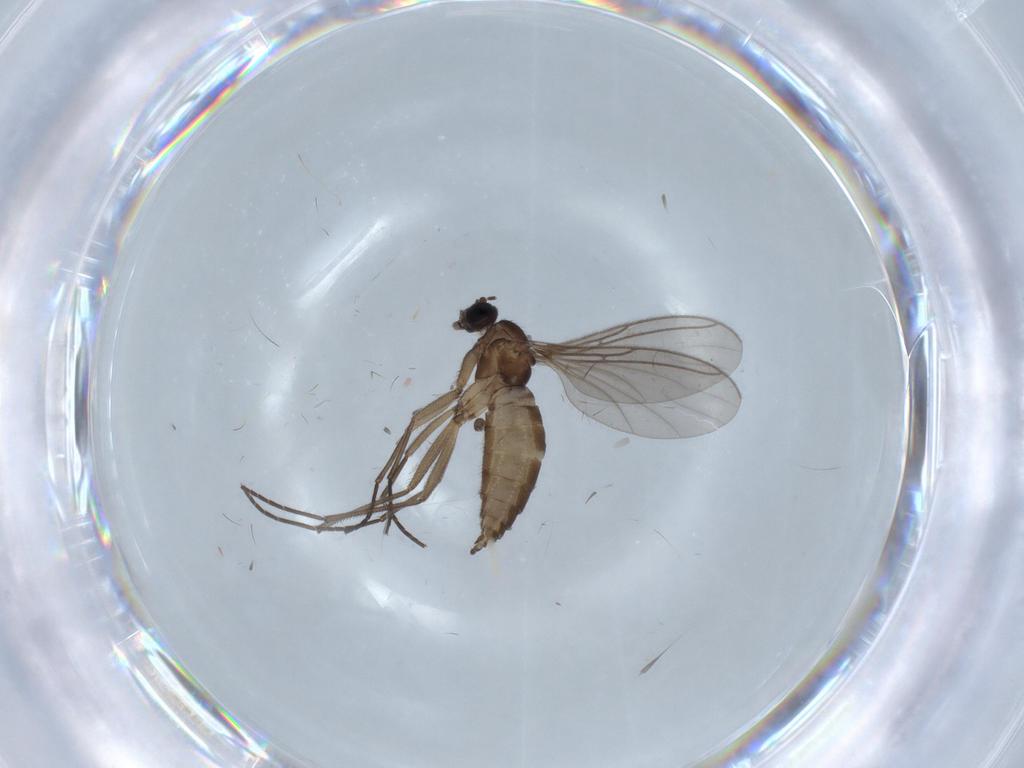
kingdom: Animalia
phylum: Arthropoda
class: Insecta
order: Diptera
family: Sciaridae
